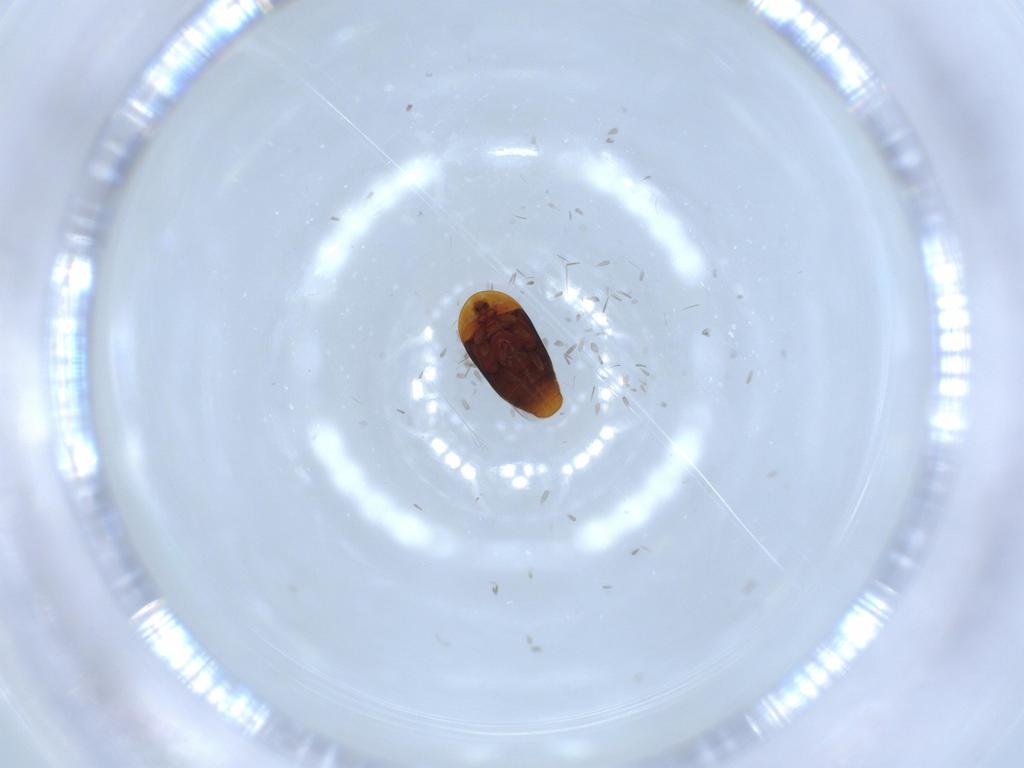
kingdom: Animalia
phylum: Arthropoda
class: Insecta
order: Coleoptera
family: Corylophidae
